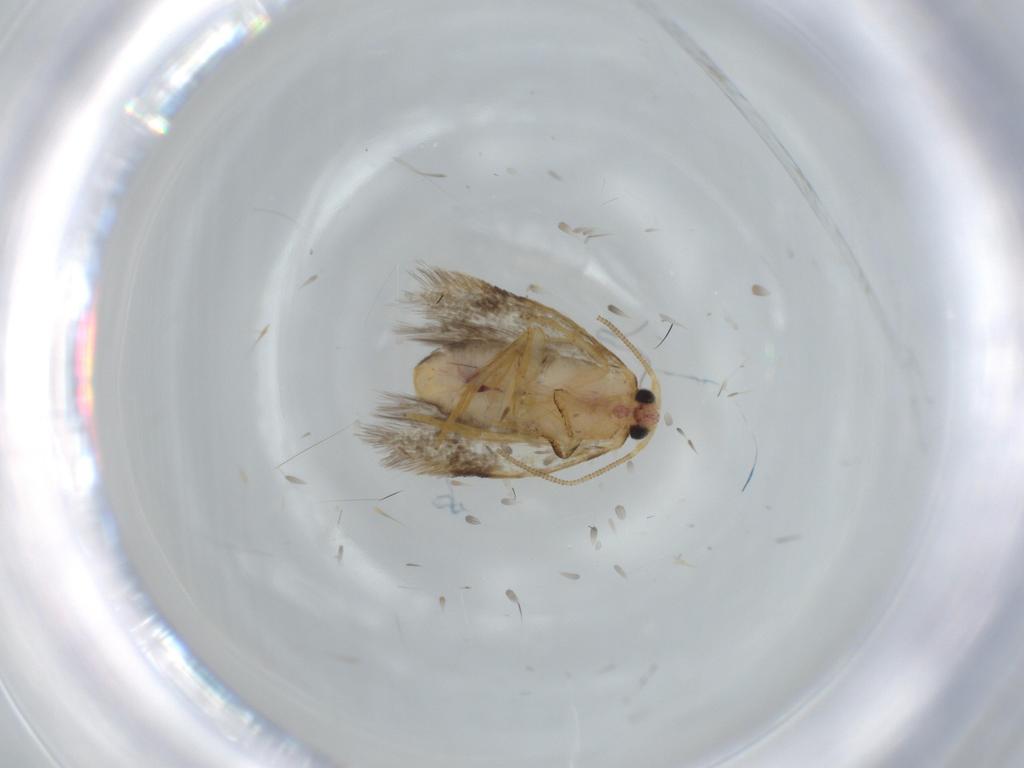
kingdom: Animalia
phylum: Arthropoda
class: Insecta
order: Lepidoptera
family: Nepticulidae
